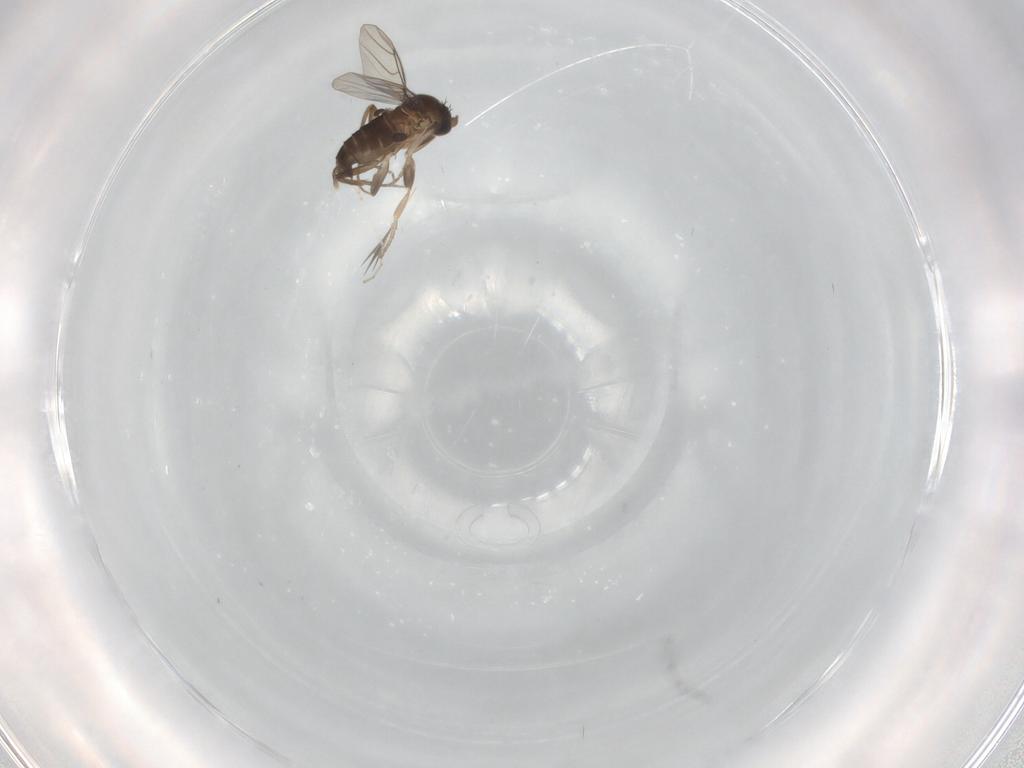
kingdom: Animalia
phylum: Arthropoda
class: Insecta
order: Diptera
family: Phoridae
